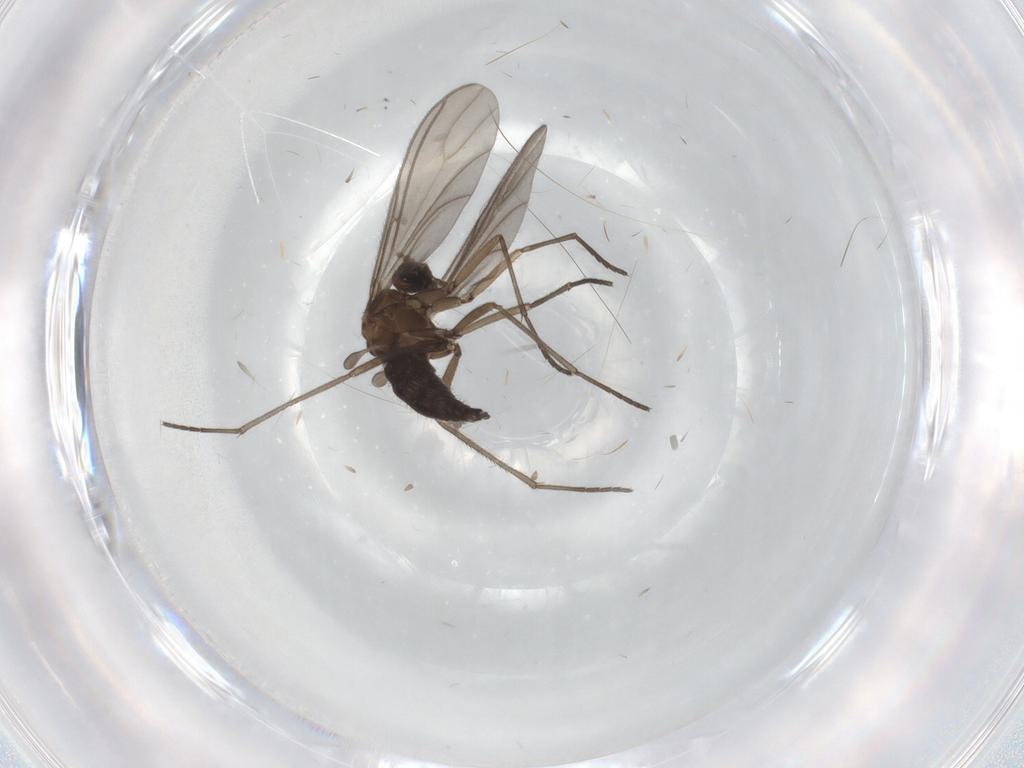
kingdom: Animalia
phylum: Arthropoda
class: Insecta
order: Diptera
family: Sciaridae
